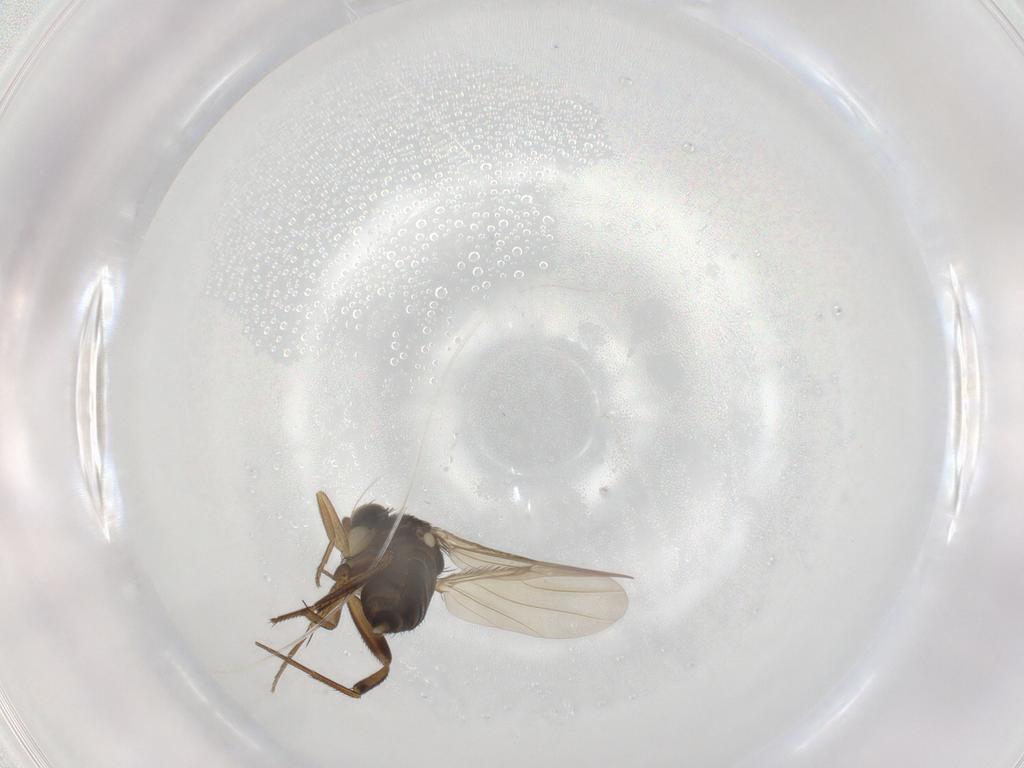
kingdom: Animalia
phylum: Arthropoda
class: Insecta
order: Diptera
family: Phoridae
